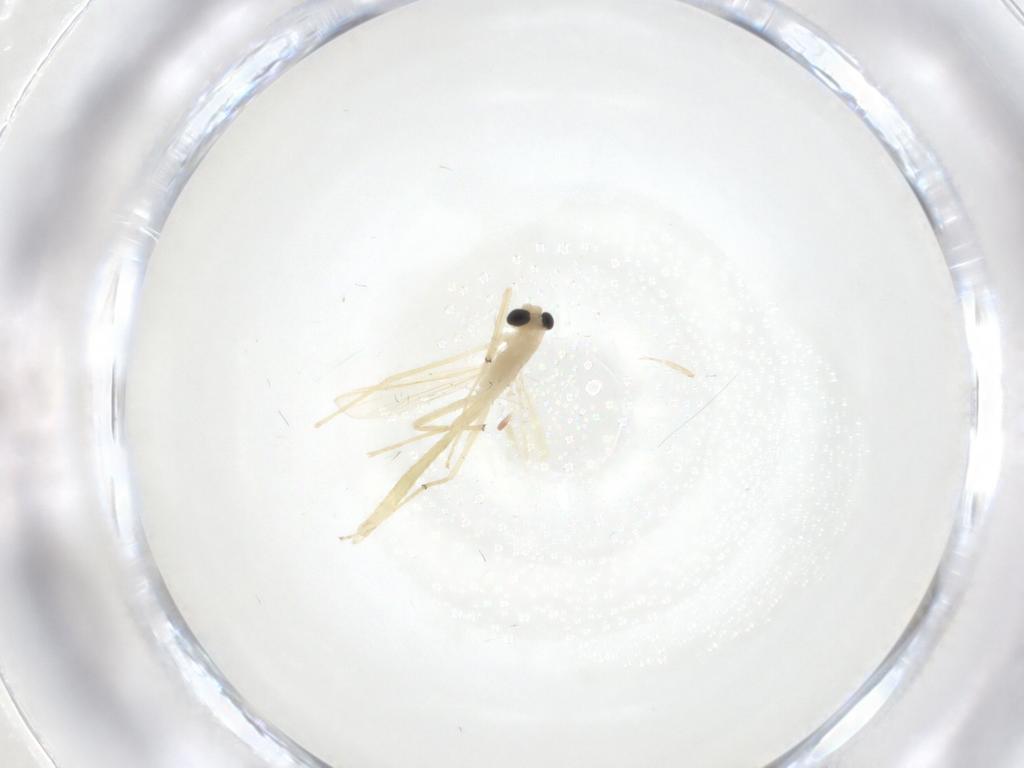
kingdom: Animalia
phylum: Arthropoda
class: Insecta
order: Diptera
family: Chironomidae
